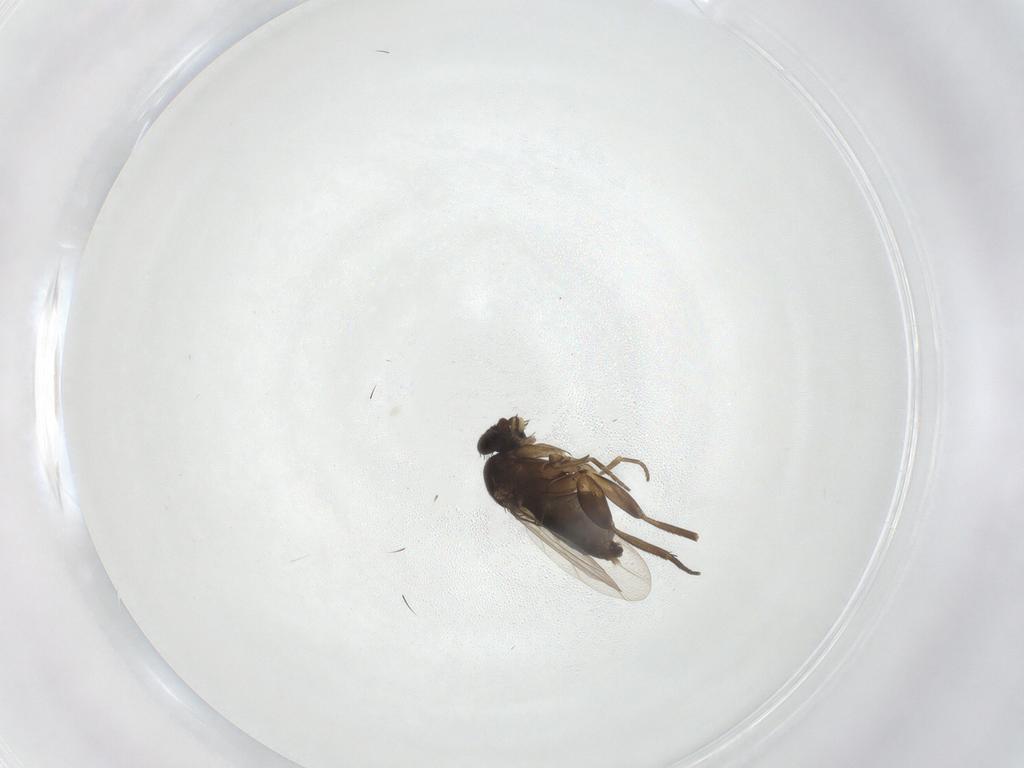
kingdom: Animalia
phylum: Arthropoda
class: Insecta
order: Diptera
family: Phoridae
